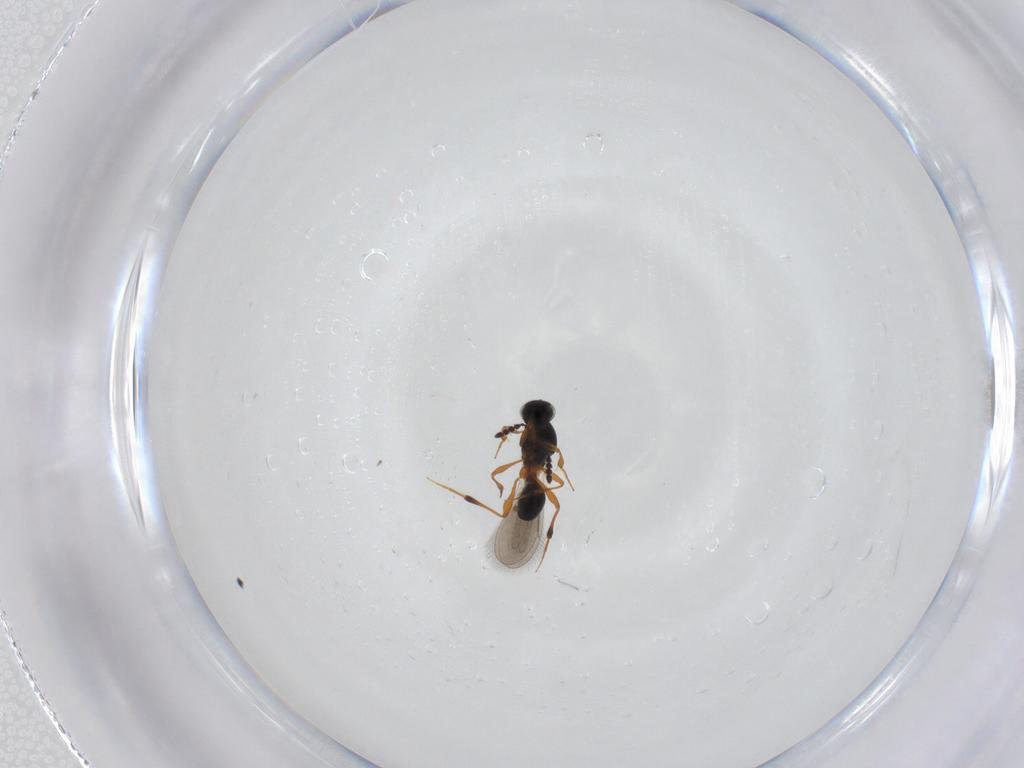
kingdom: Animalia
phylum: Arthropoda
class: Insecta
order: Hymenoptera
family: Platygastridae
